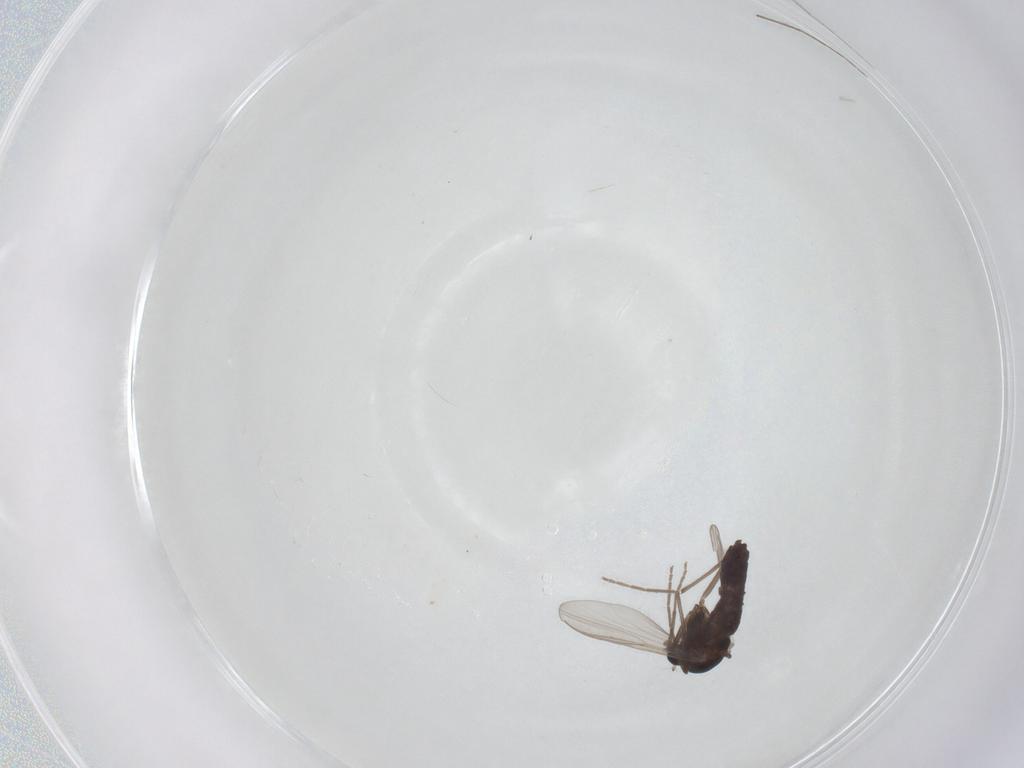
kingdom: Animalia
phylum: Arthropoda
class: Insecta
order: Diptera
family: Chironomidae
